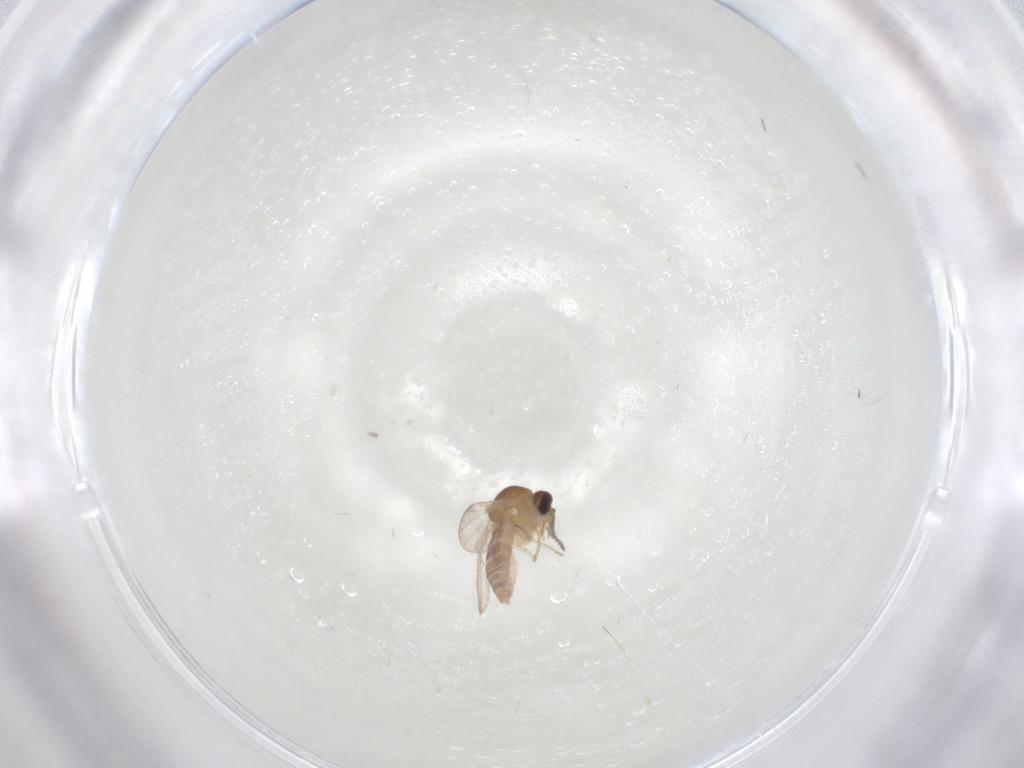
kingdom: Animalia
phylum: Arthropoda
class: Insecta
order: Diptera
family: Ceratopogonidae
